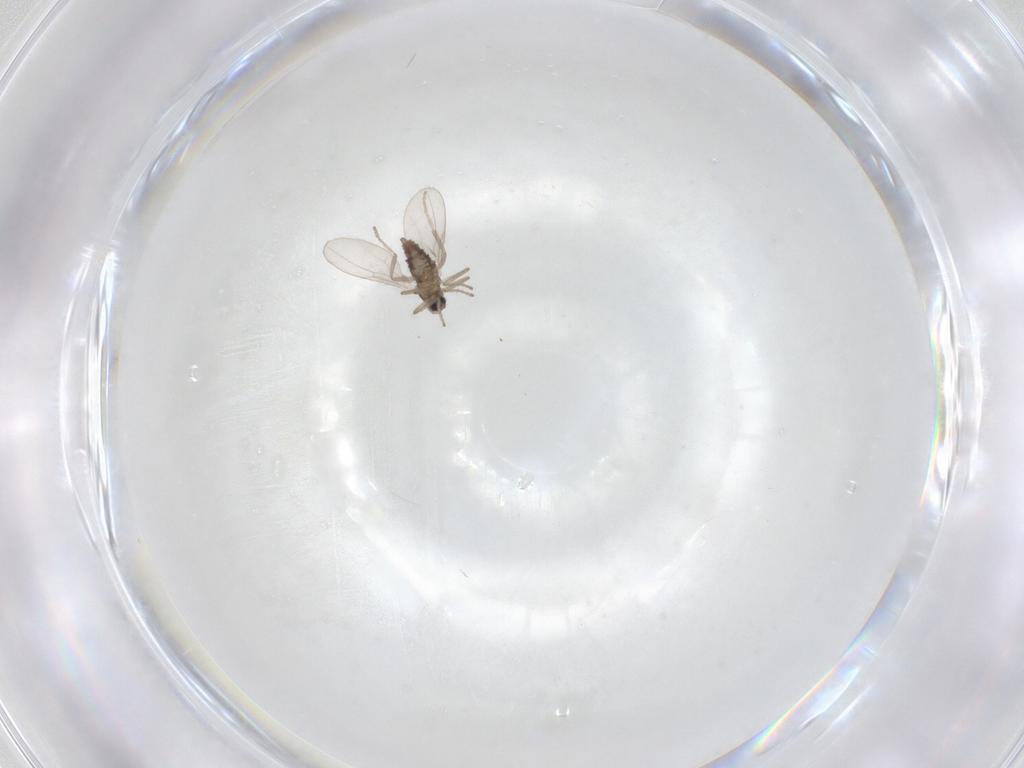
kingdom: Animalia
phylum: Arthropoda
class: Insecta
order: Diptera
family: Cecidomyiidae
